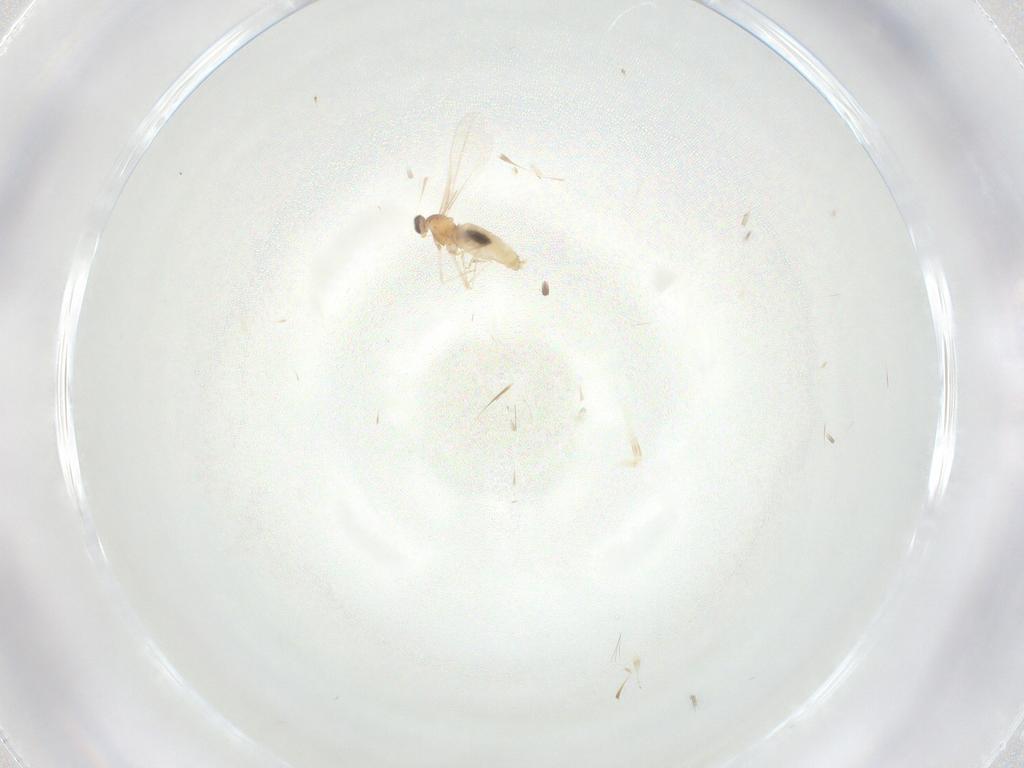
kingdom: Animalia
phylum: Arthropoda
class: Insecta
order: Diptera
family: Cecidomyiidae
